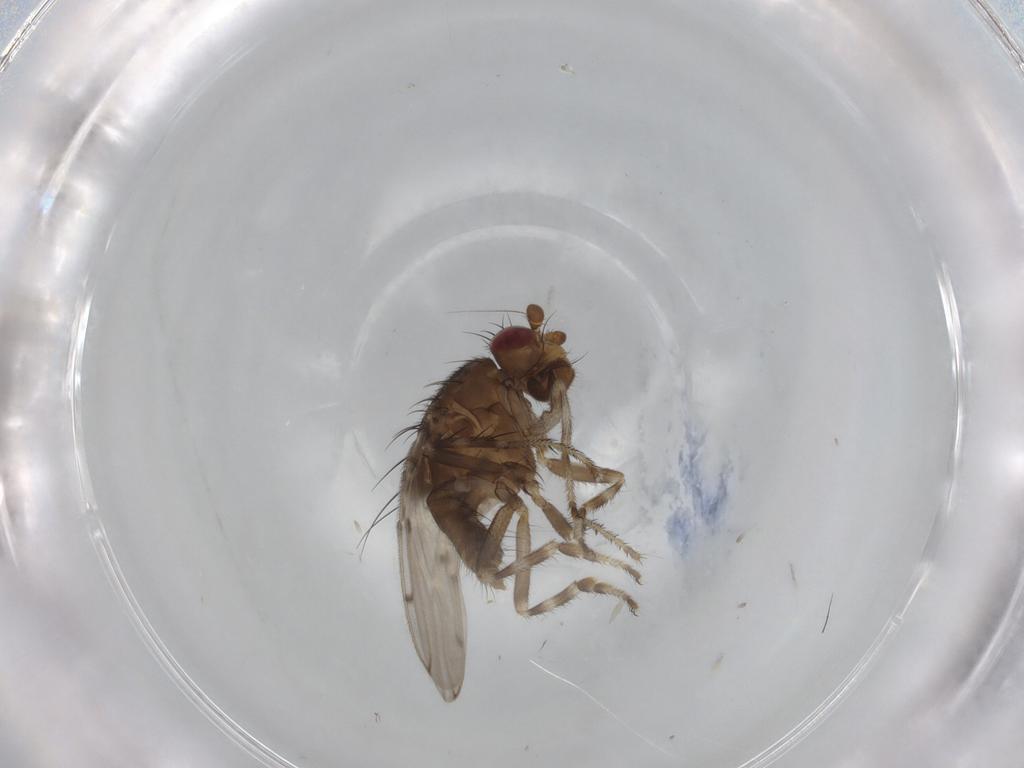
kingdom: Animalia
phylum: Arthropoda
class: Insecta
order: Diptera
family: Sphaeroceridae
